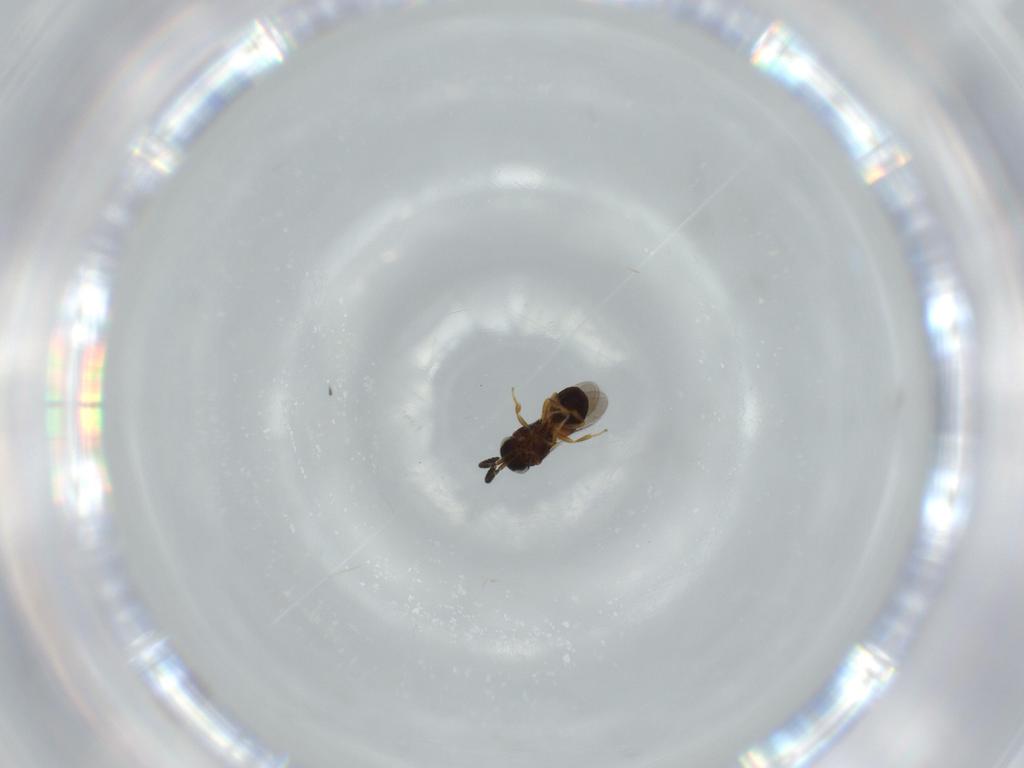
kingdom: Animalia
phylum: Arthropoda
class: Insecta
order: Hymenoptera
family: Scelionidae
